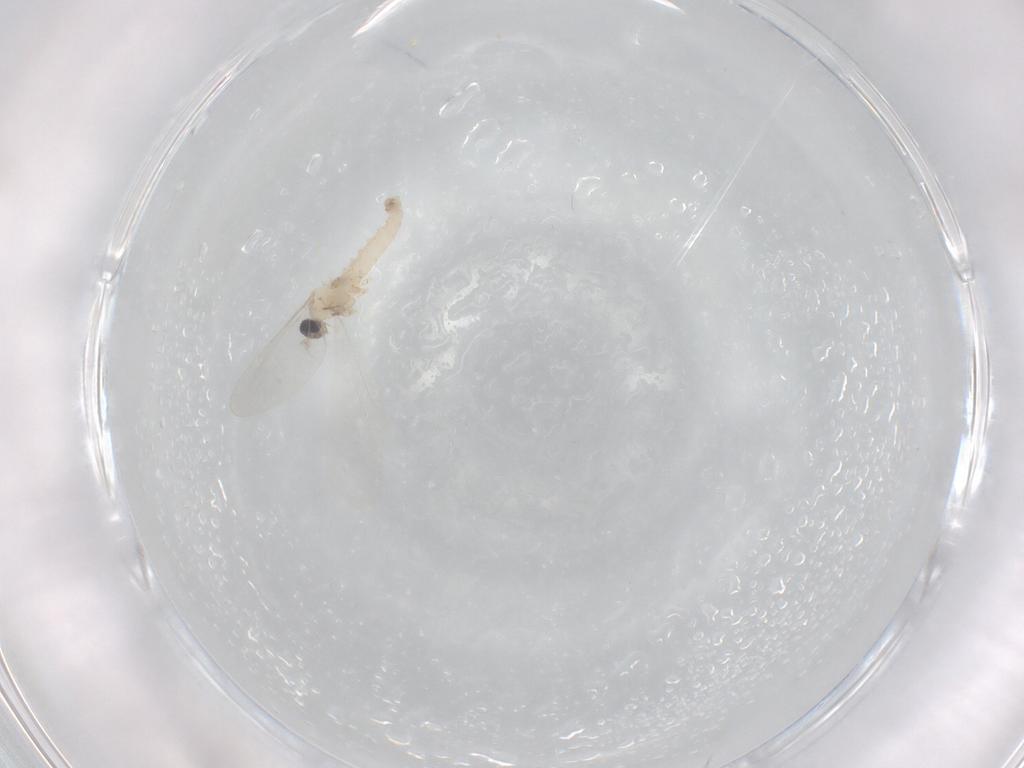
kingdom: Animalia
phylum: Arthropoda
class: Insecta
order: Diptera
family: Cecidomyiidae
